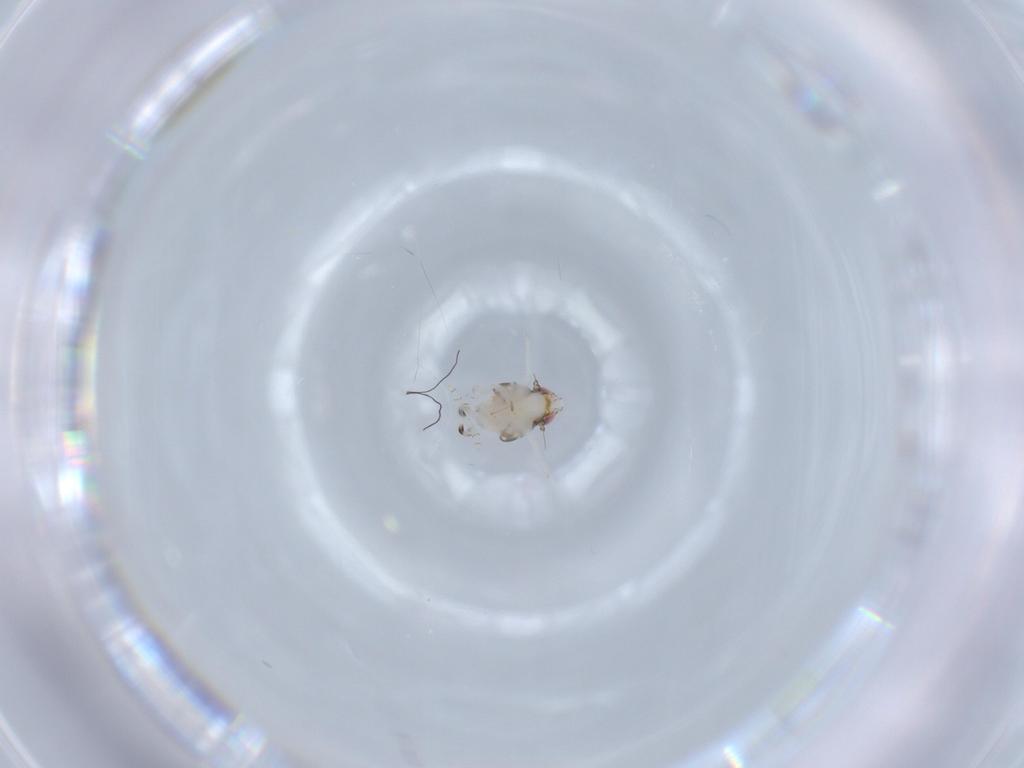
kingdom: Animalia
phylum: Arthropoda
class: Insecta
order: Hemiptera
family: Nogodinidae
